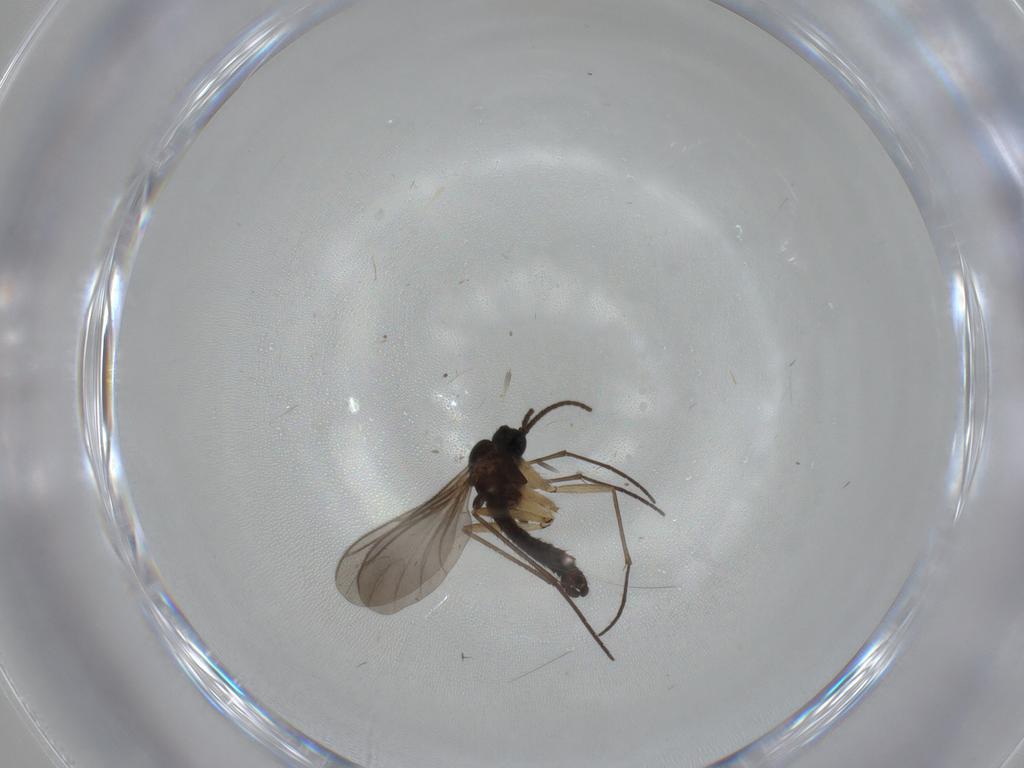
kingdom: Animalia
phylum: Arthropoda
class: Insecta
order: Diptera
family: Sciaridae
